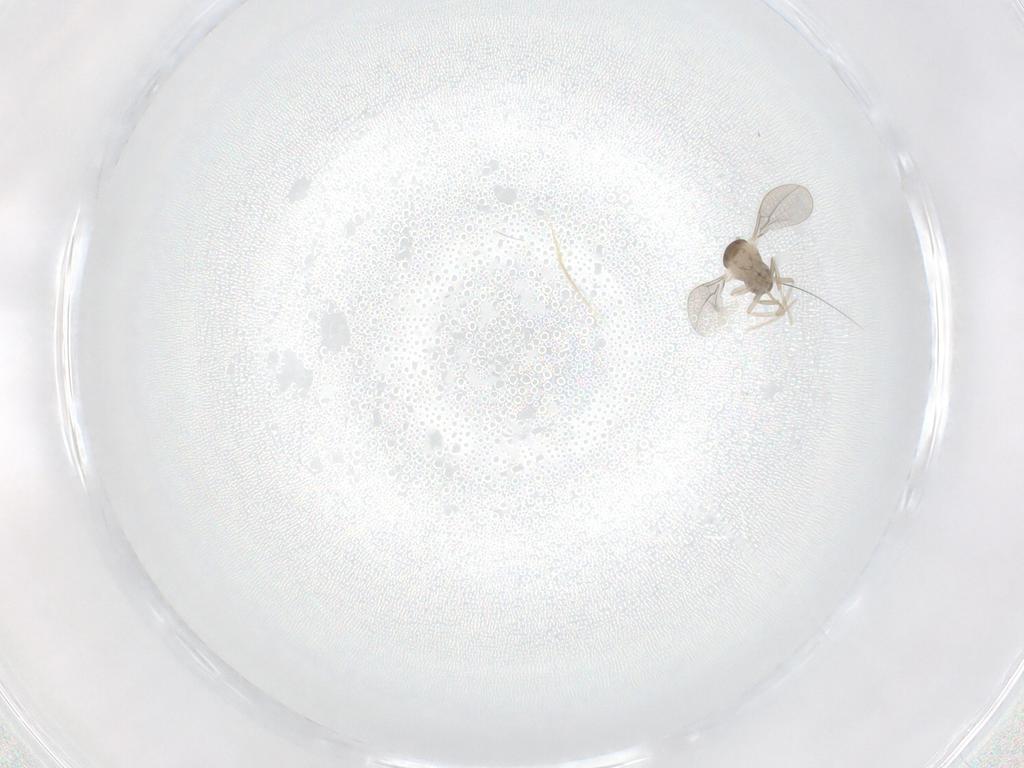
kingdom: Animalia
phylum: Arthropoda
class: Insecta
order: Diptera
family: Cecidomyiidae
